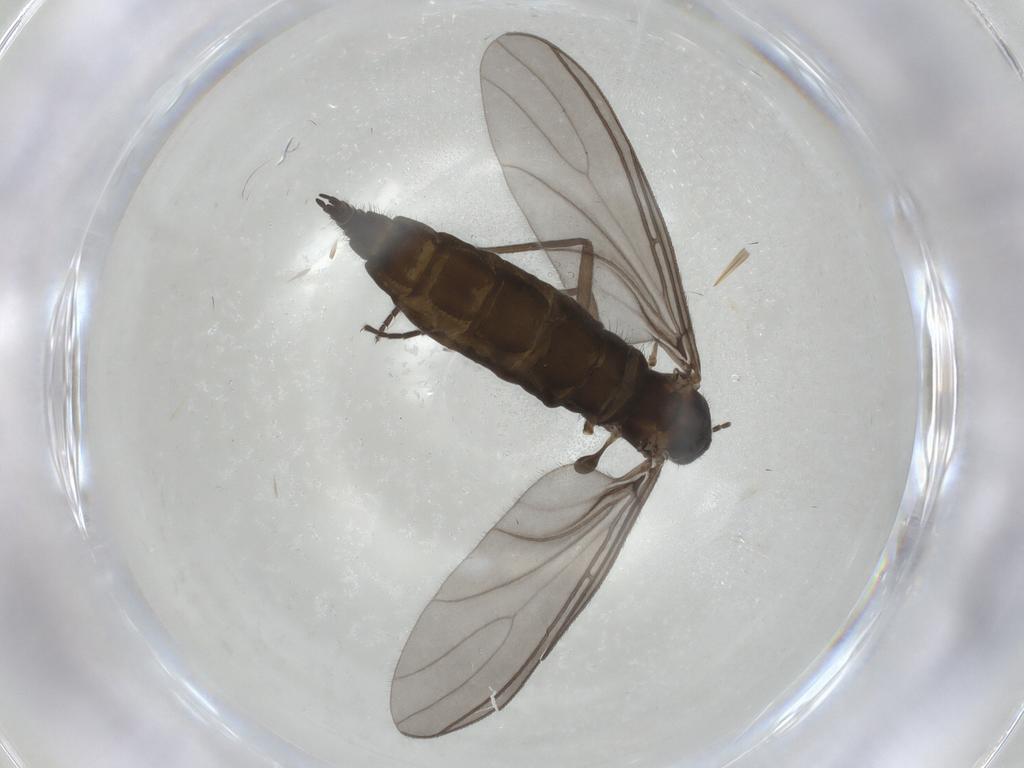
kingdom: Animalia
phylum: Arthropoda
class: Insecta
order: Diptera
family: Sciaridae
